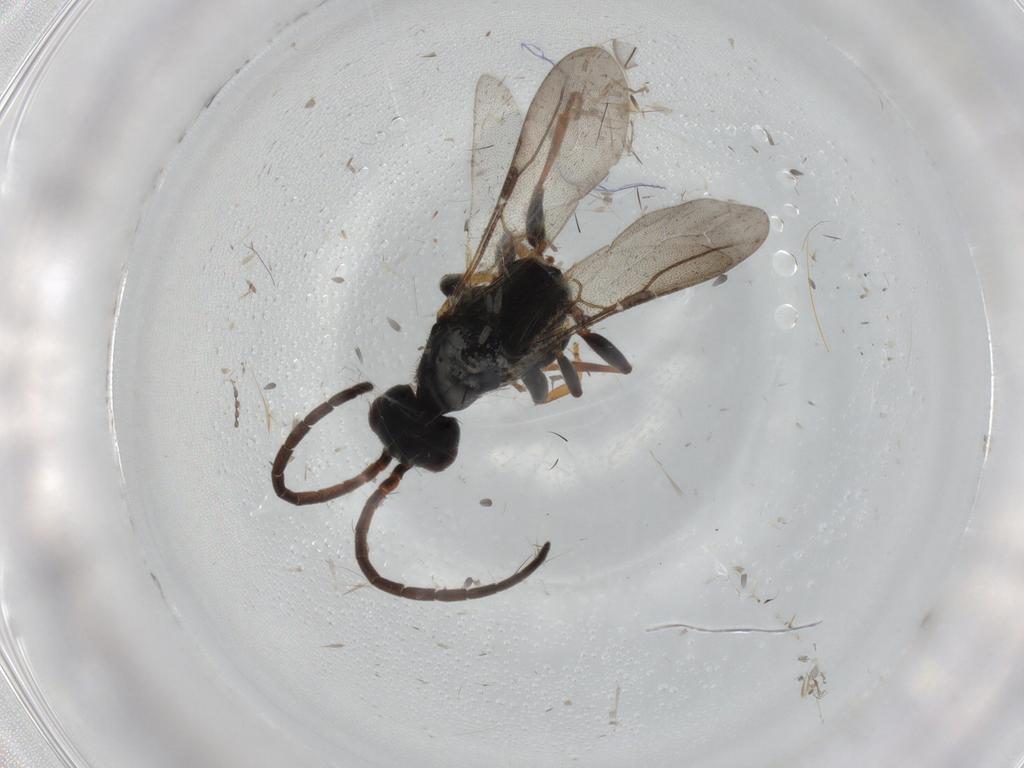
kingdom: Animalia
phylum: Arthropoda
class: Insecta
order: Hymenoptera
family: Bethylidae
